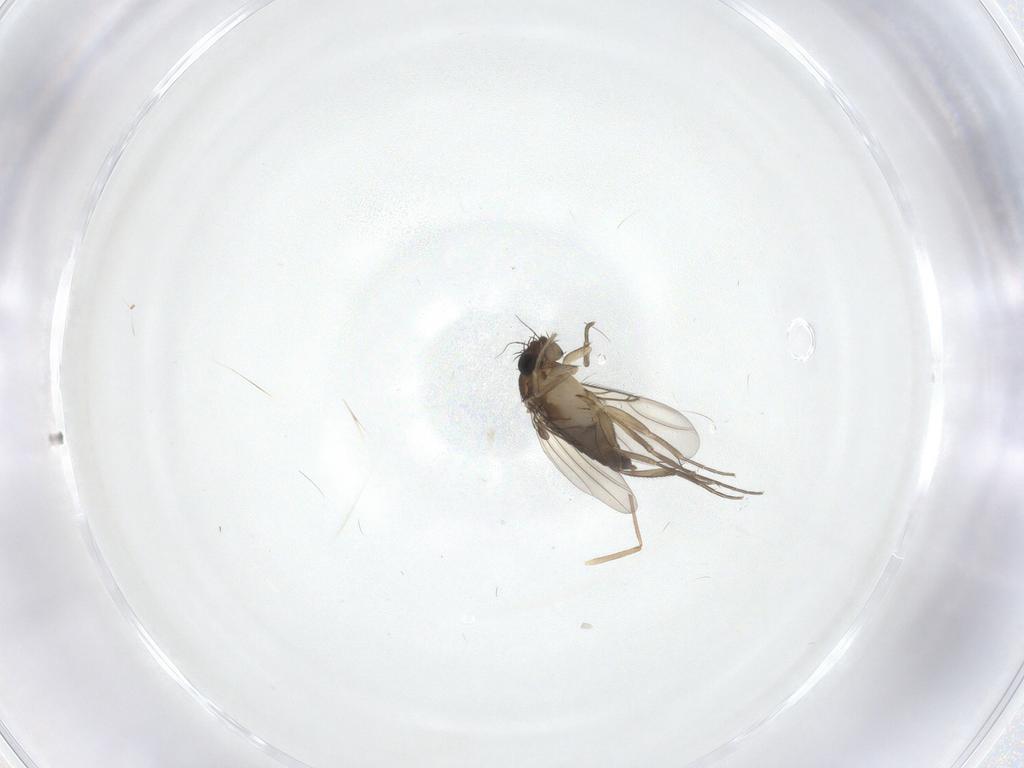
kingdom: Animalia
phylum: Arthropoda
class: Insecta
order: Diptera
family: Phoridae
